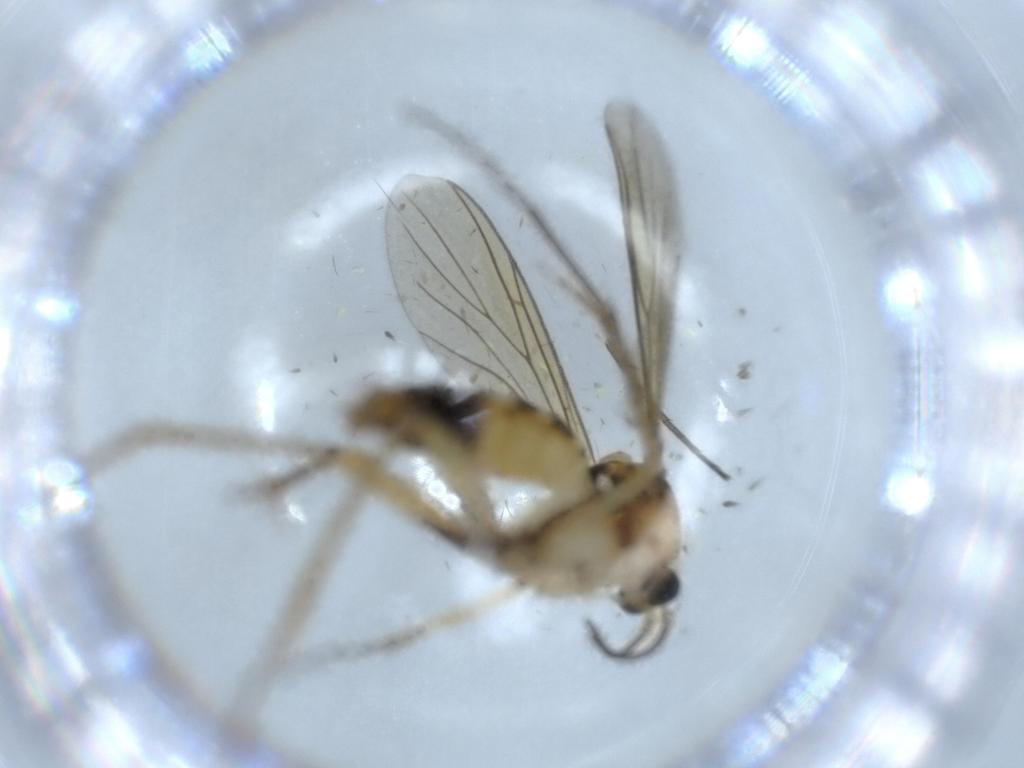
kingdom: Animalia
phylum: Arthropoda
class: Insecta
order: Diptera
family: Mycetophilidae
